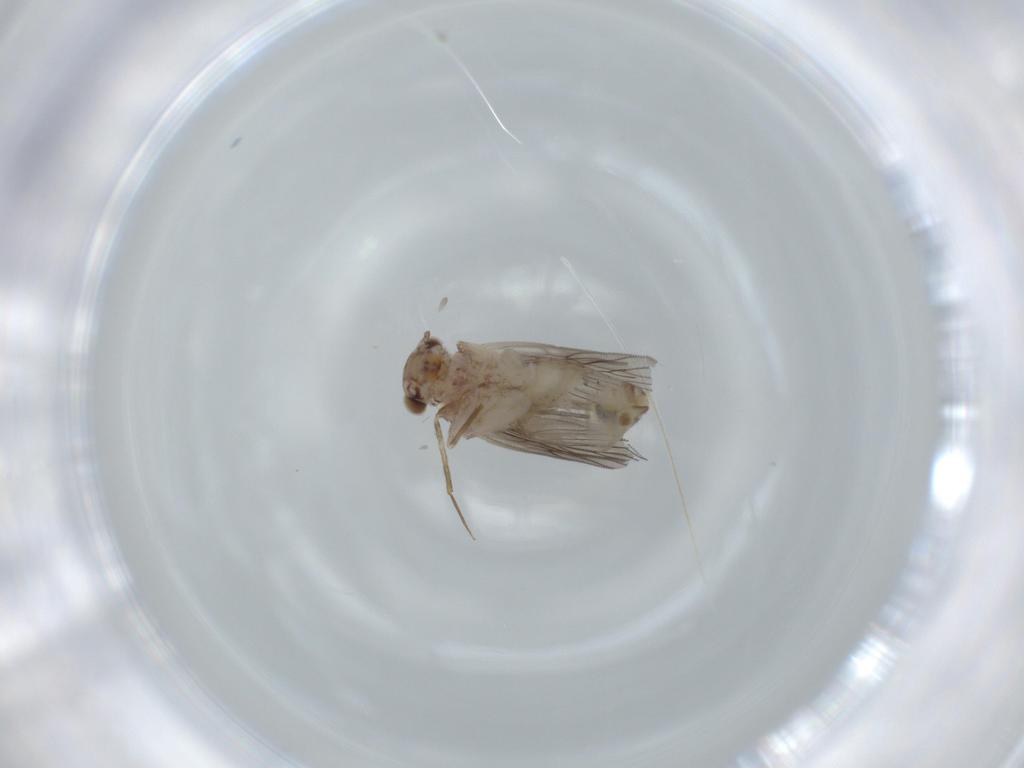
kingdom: Animalia
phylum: Arthropoda
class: Insecta
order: Psocodea
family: Lepidopsocidae
